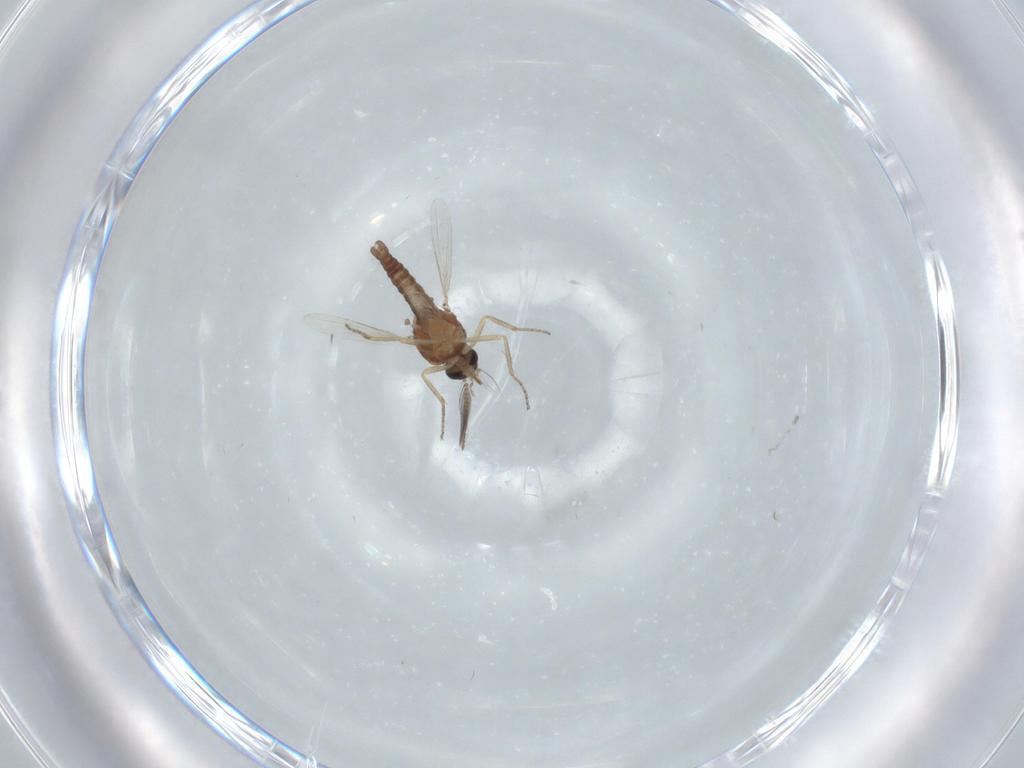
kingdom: Animalia
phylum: Arthropoda
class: Insecta
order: Diptera
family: Ceratopogonidae
